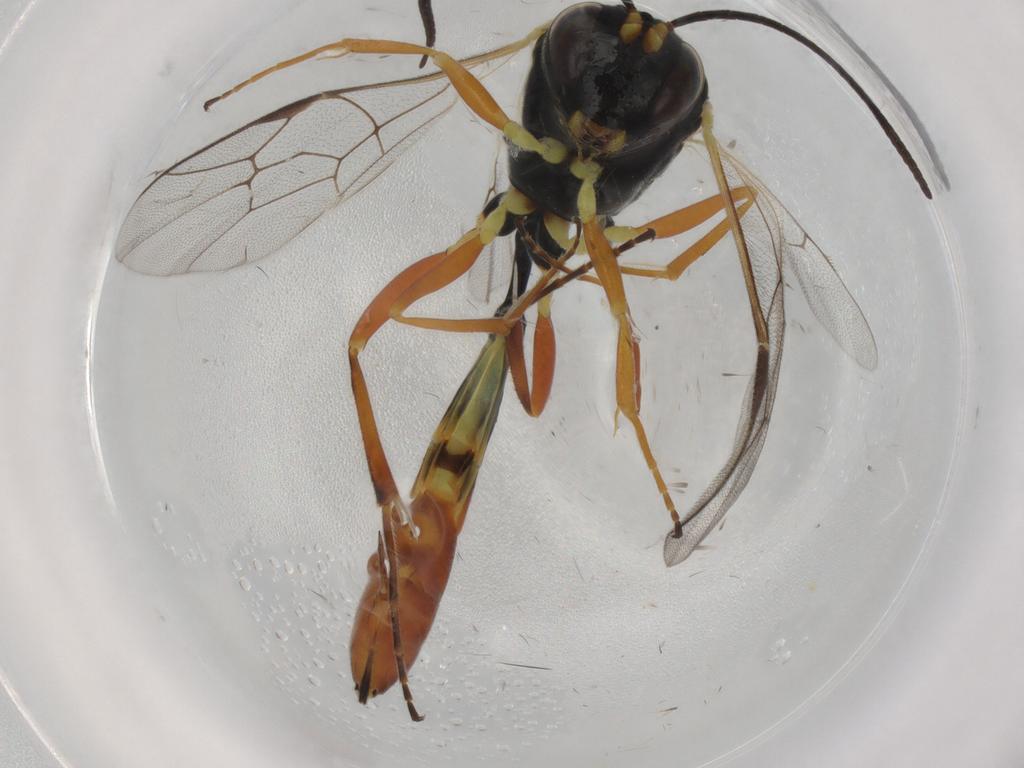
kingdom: Animalia
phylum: Arthropoda
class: Insecta
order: Hymenoptera
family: Ichneumonidae
